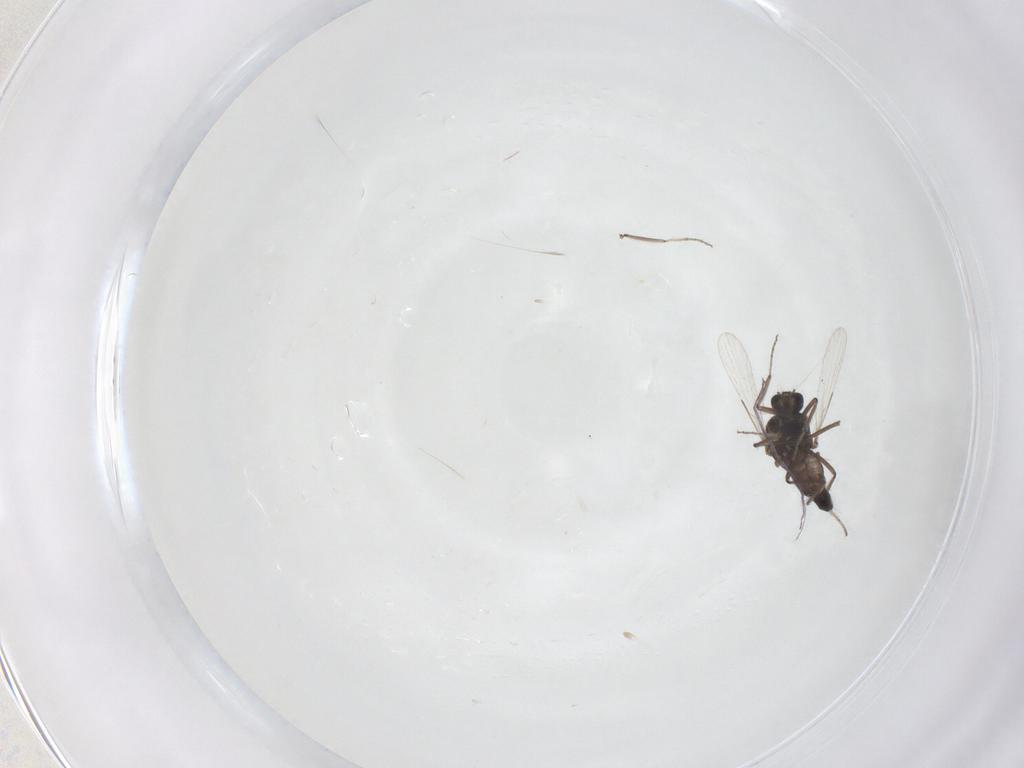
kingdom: Animalia
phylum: Arthropoda
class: Insecta
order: Diptera
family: Ceratopogonidae
